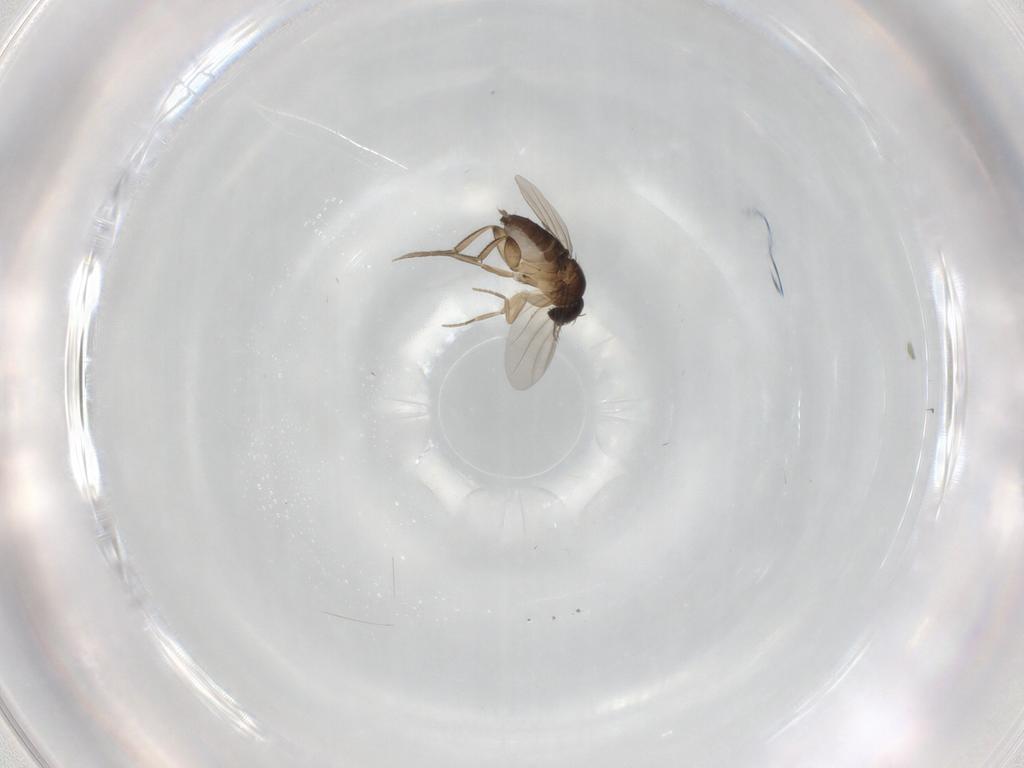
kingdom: Animalia
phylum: Arthropoda
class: Insecta
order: Diptera
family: Phoridae
